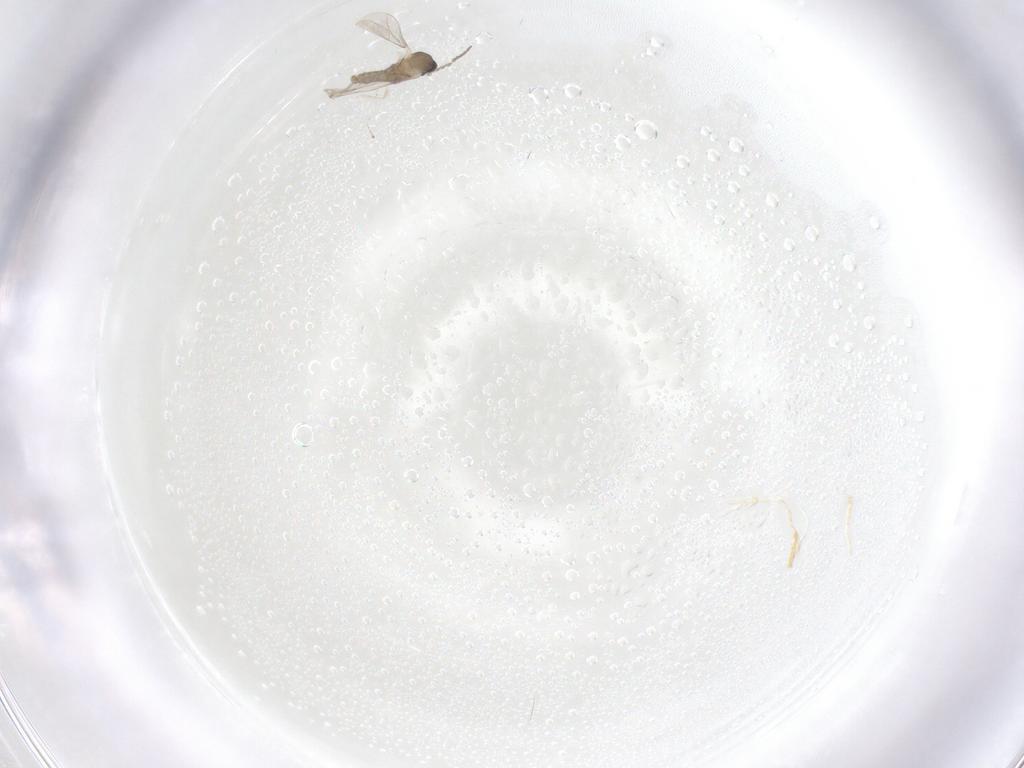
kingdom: Animalia
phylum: Arthropoda
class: Insecta
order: Diptera
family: Cecidomyiidae
